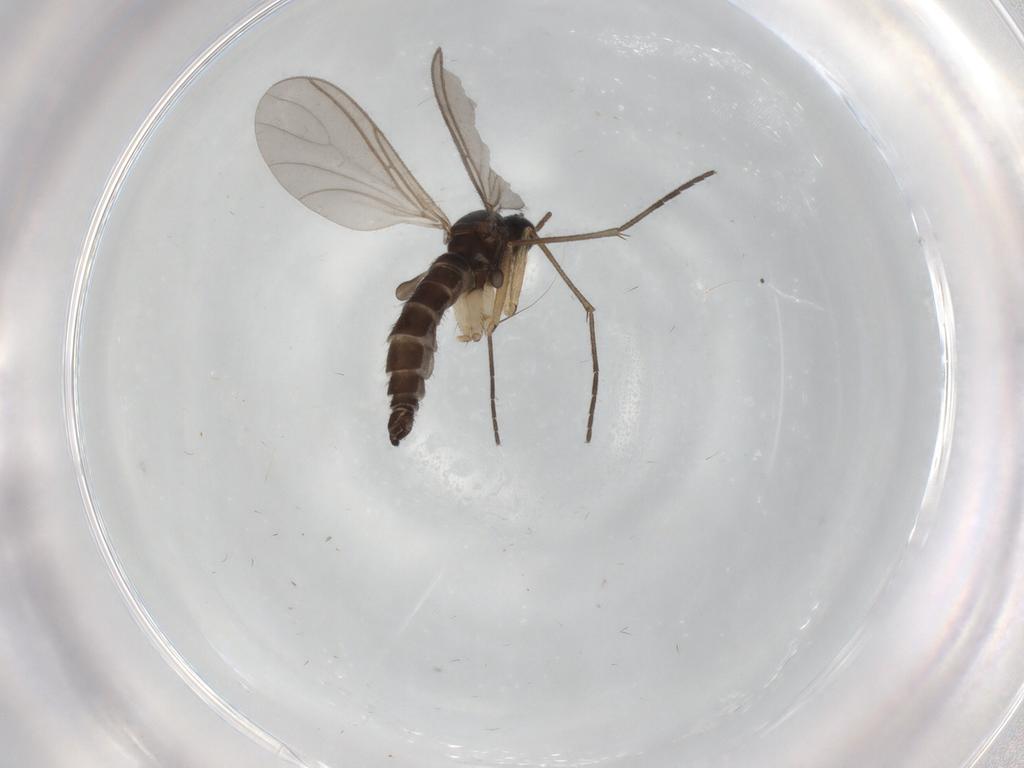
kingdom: Animalia
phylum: Arthropoda
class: Insecta
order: Diptera
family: Sciaridae
